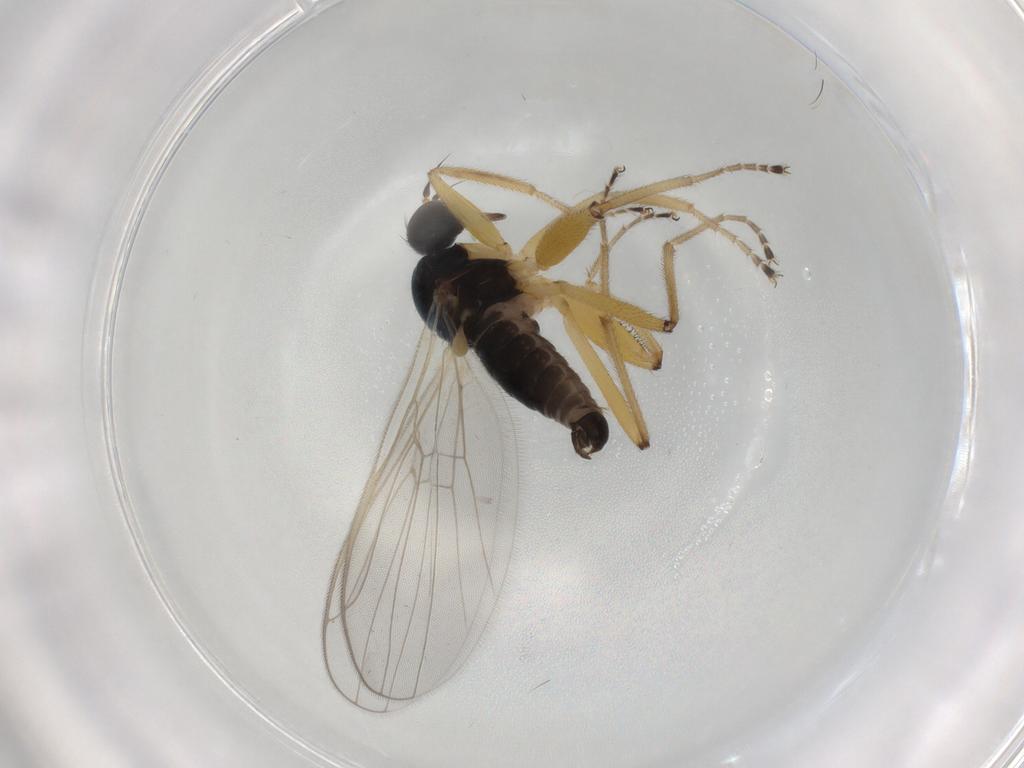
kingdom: Animalia
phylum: Arthropoda
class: Insecta
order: Diptera
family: Hybotidae
